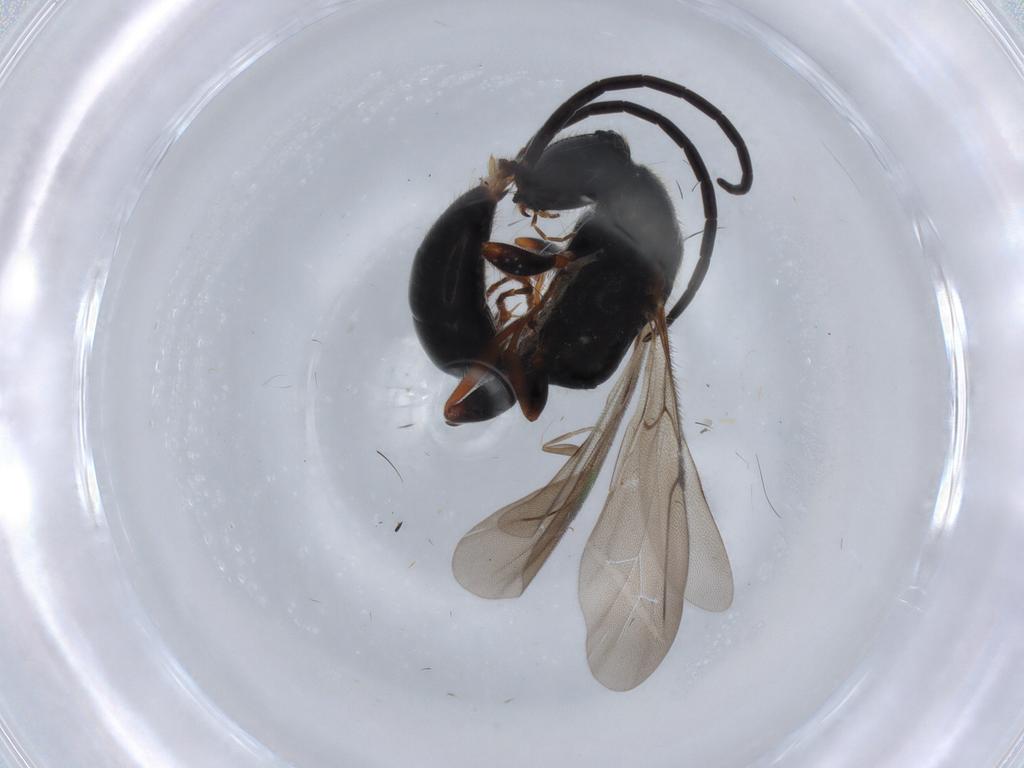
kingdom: Animalia
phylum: Arthropoda
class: Insecta
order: Hymenoptera
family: Bethylidae
